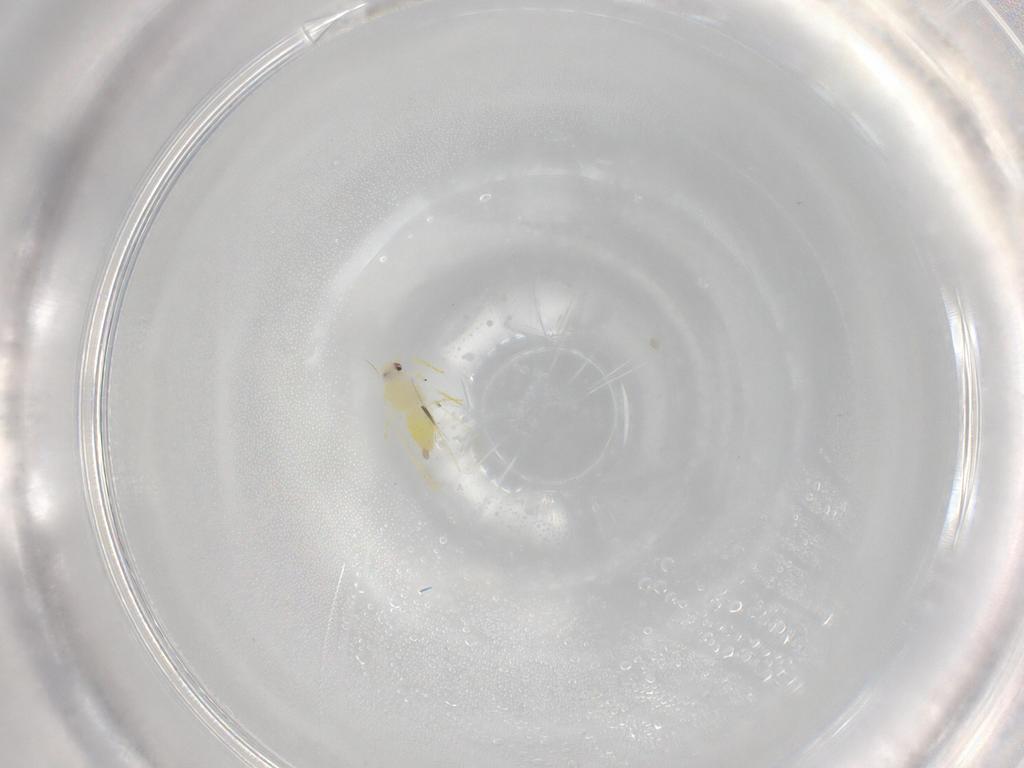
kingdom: Animalia
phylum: Arthropoda
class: Insecta
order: Hemiptera
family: Aleyrodidae
